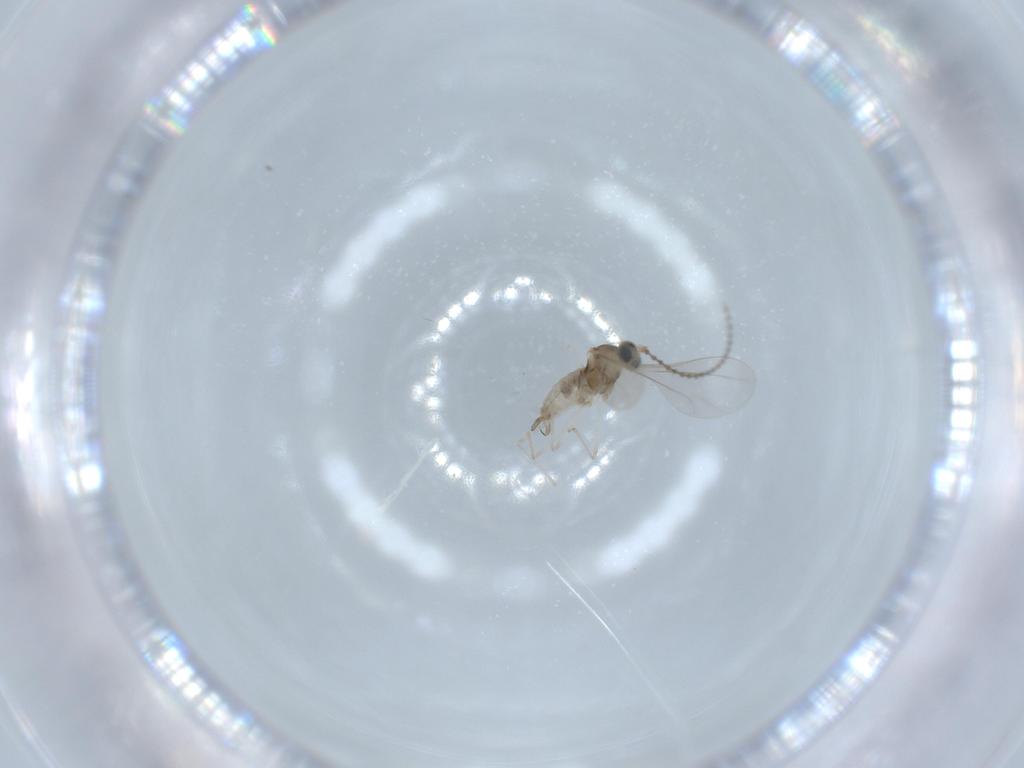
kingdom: Animalia
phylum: Arthropoda
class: Insecta
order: Diptera
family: Cecidomyiidae
